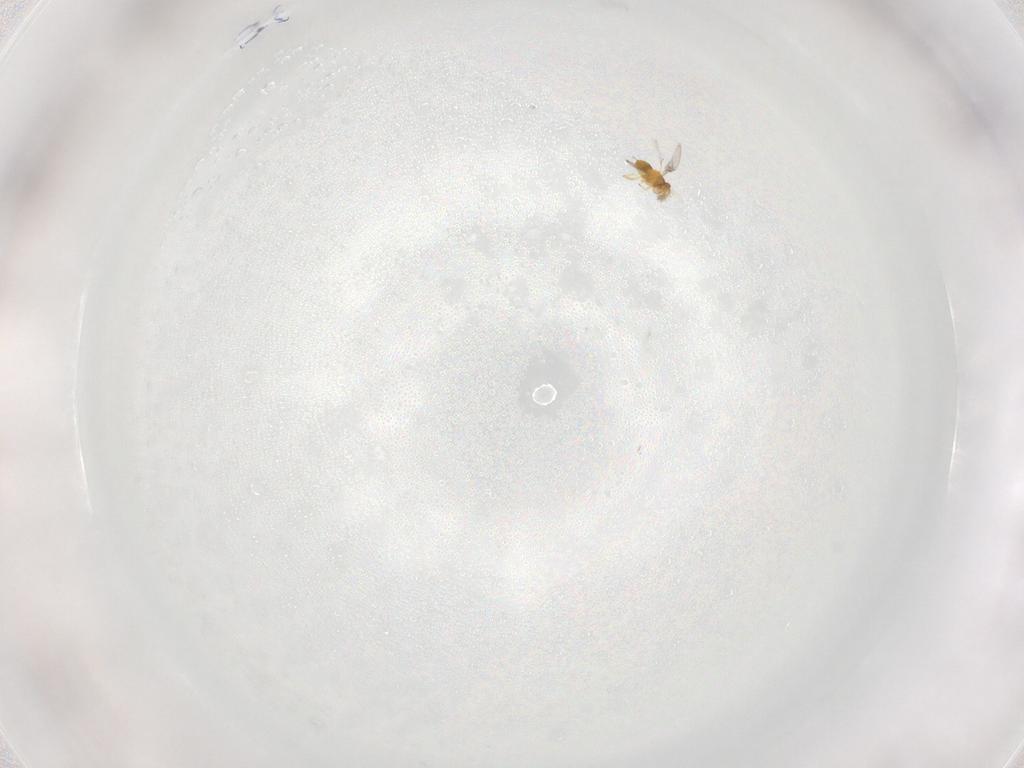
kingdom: Animalia
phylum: Arthropoda
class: Insecta
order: Hymenoptera
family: Trichogrammatidae
